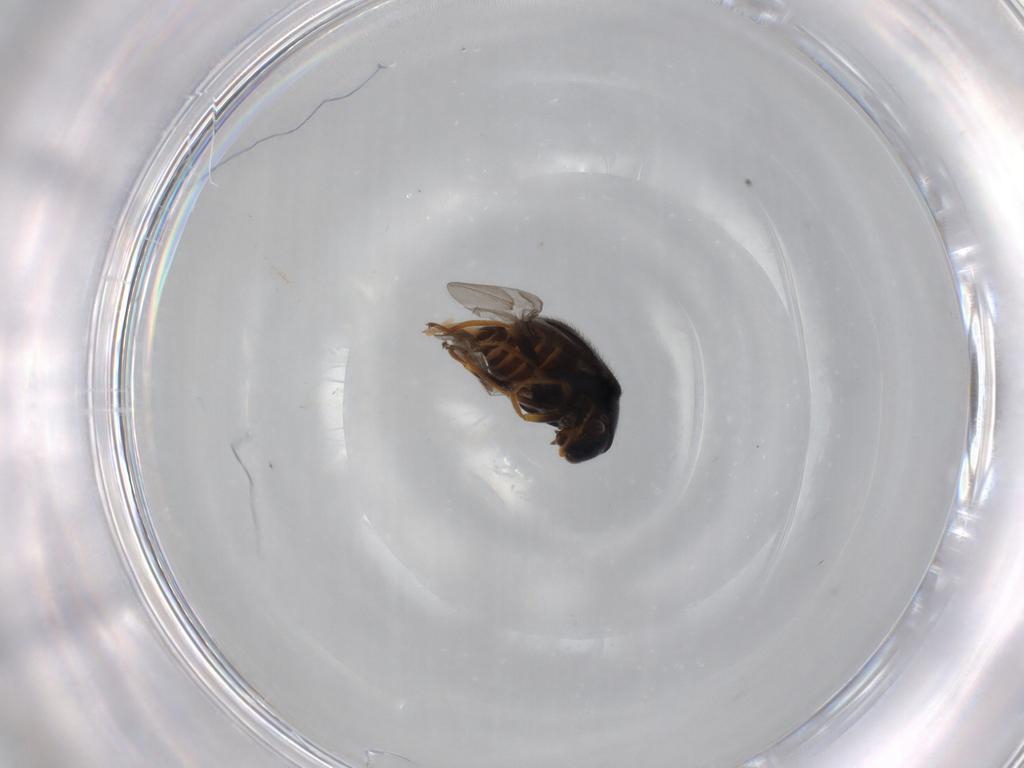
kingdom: Animalia
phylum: Arthropoda
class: Insecta
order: Coleoptera
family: Melyridae
